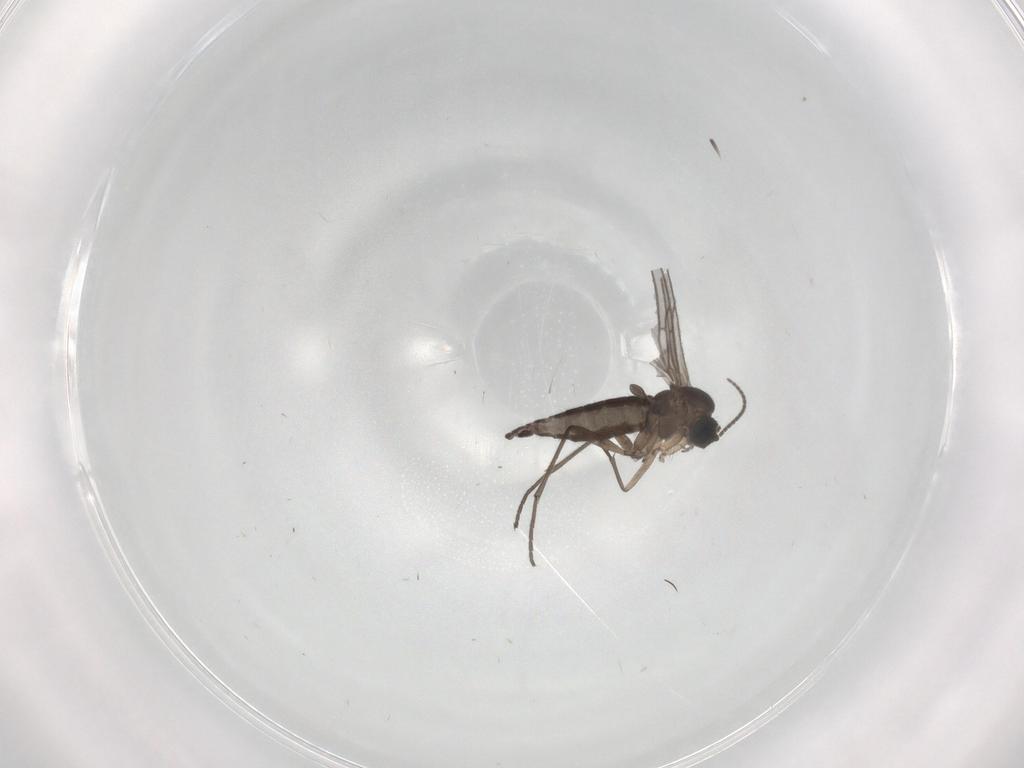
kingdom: Animalia
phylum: Arthropoda
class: Insecta
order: Diptera
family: Sciaridae
